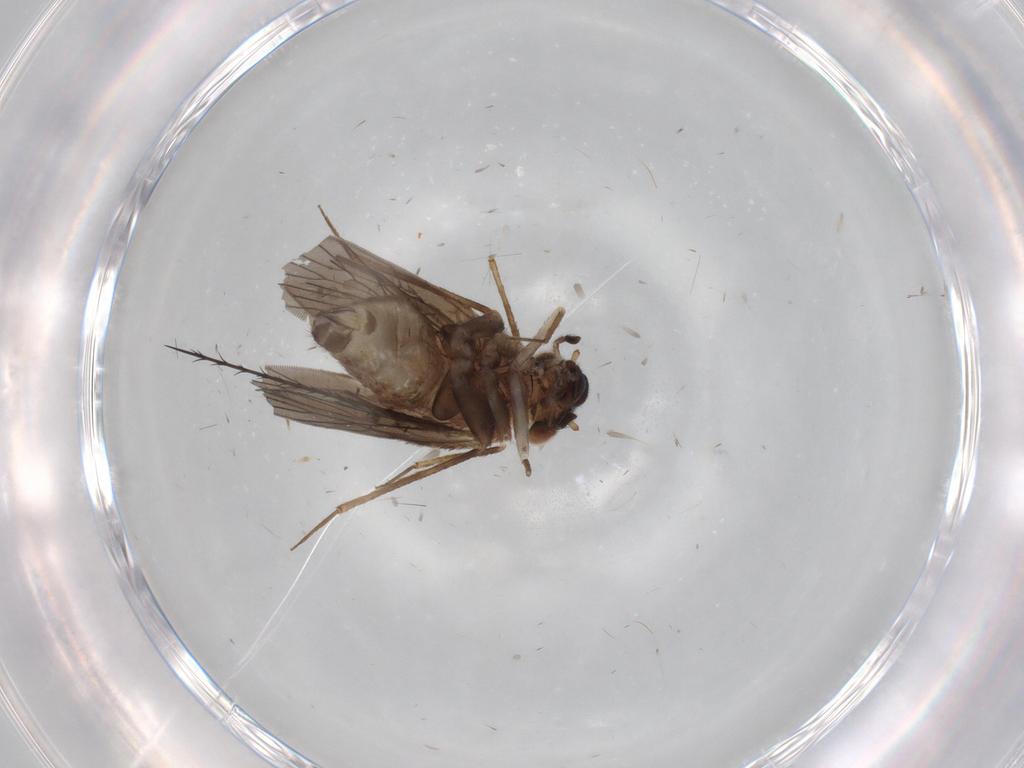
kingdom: Animalia
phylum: Arthropoda
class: Insecta
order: Psocodea
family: Lepidopsocidae
